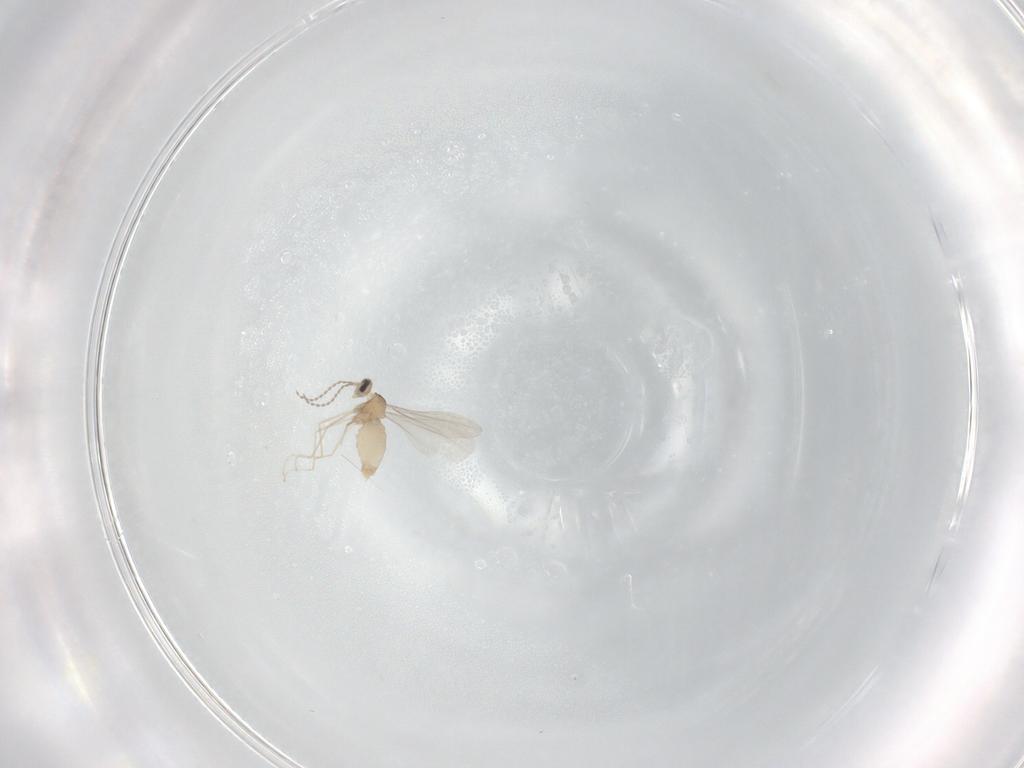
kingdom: Animalia
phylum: Arthropoda
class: Insecta
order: Diptera
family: Cecidomyiidae
